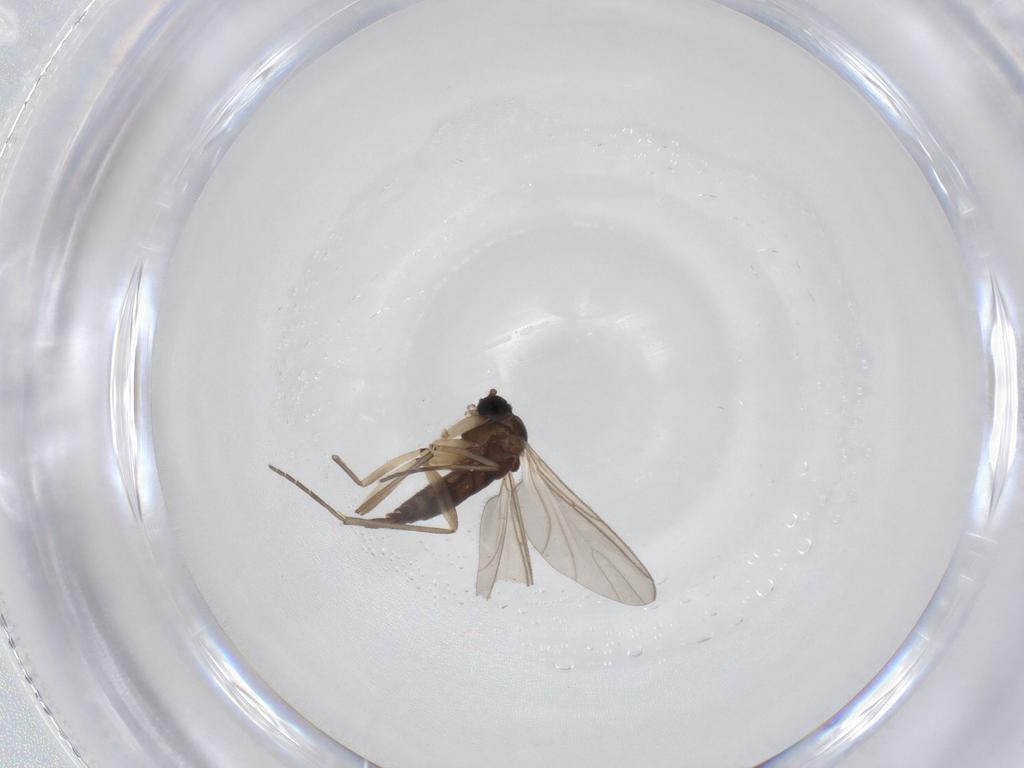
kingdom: Animalia
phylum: Arthropoda
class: Insecta
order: Diptera
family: Sciaridae
